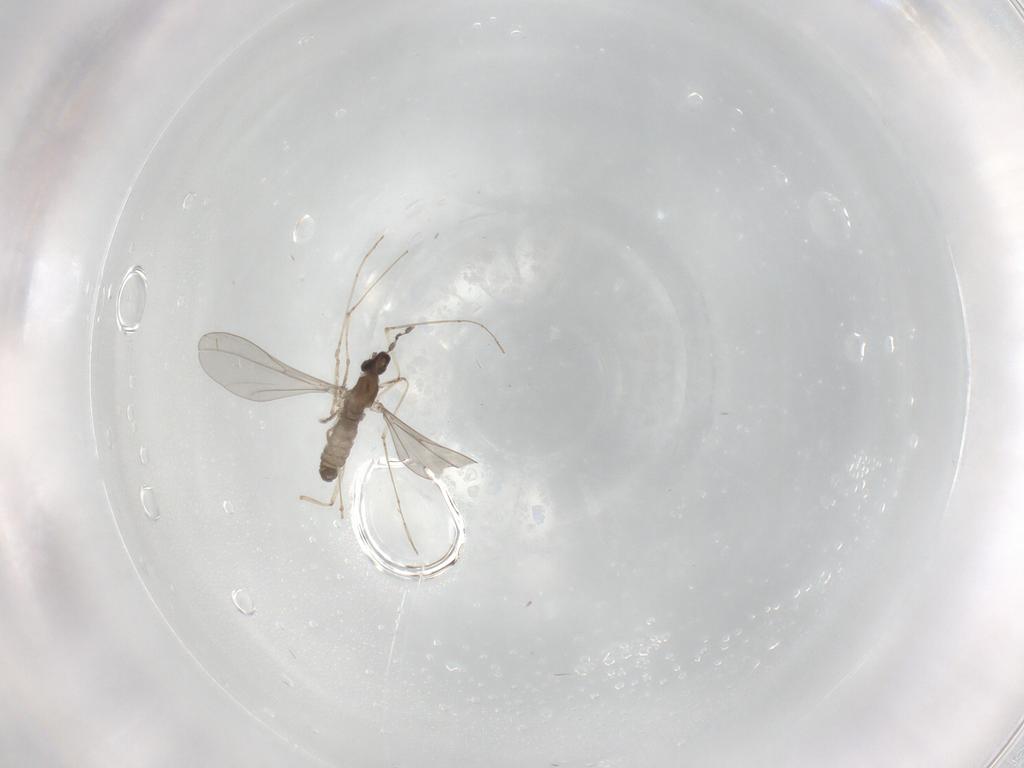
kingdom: Animalia
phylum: Arthropoda
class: Insecta
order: Diptera
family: Cecidomyiidae
